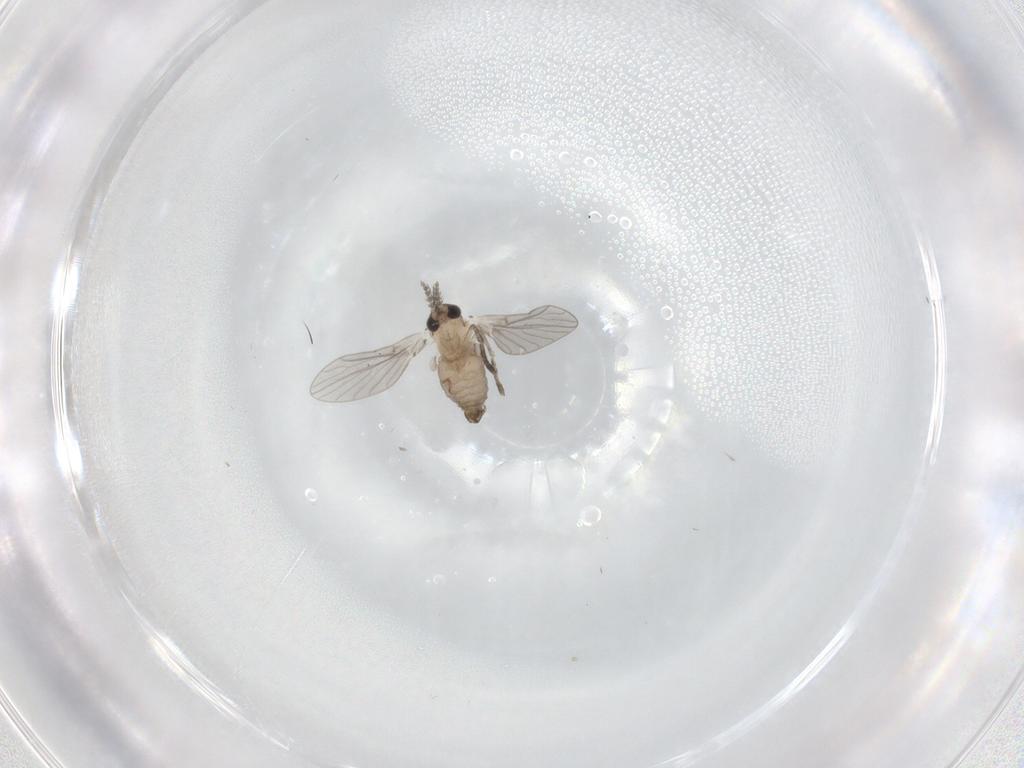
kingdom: Animalia
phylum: Arthropoda
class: Insecta
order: Diptera
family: Psychodidae
